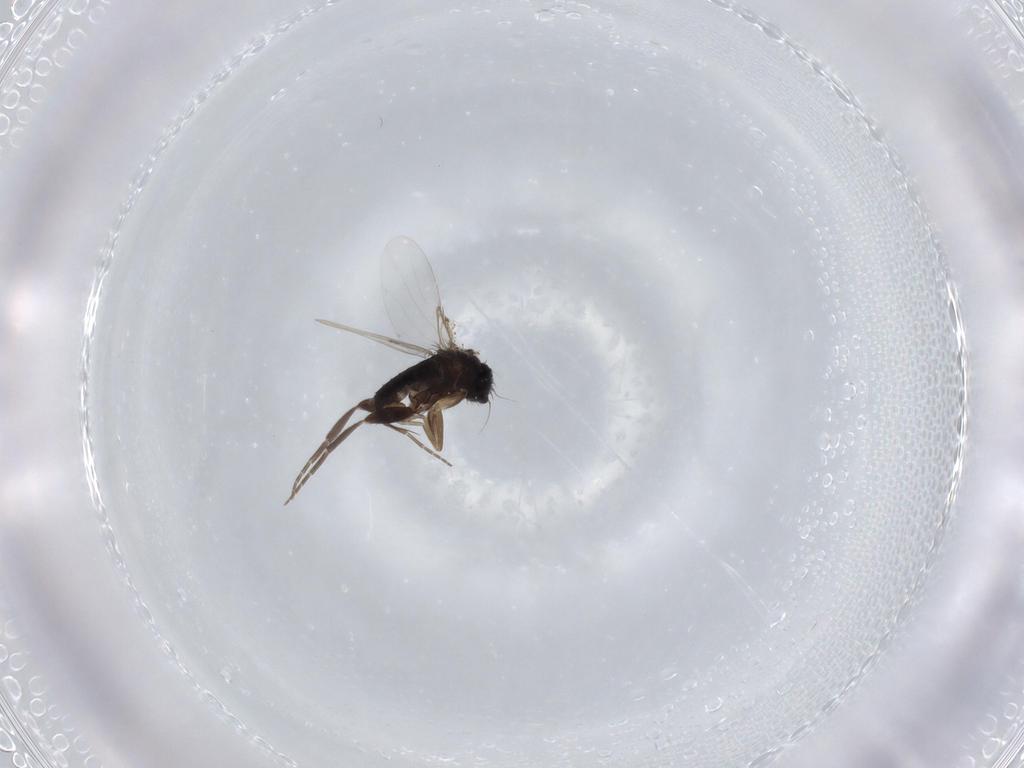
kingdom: Animalia
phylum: Arthropoda
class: Insecta
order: Diptera
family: Phoridae
